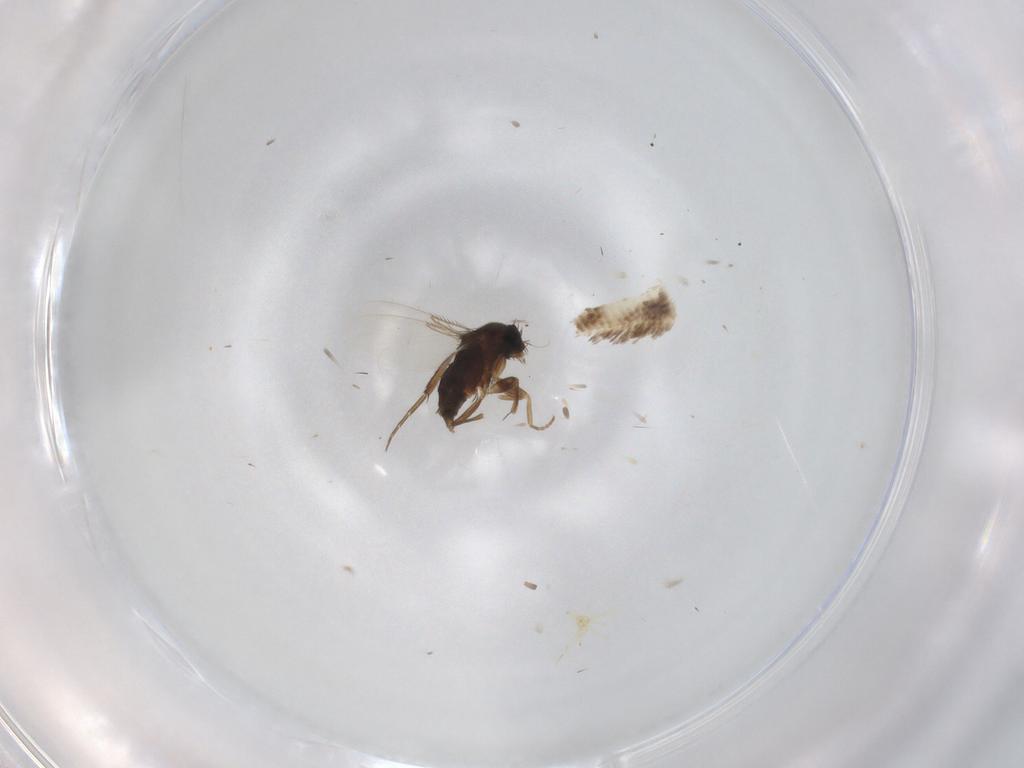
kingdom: Animalia
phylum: Arthropoda
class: Insecta
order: Diptera
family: Phoridae
